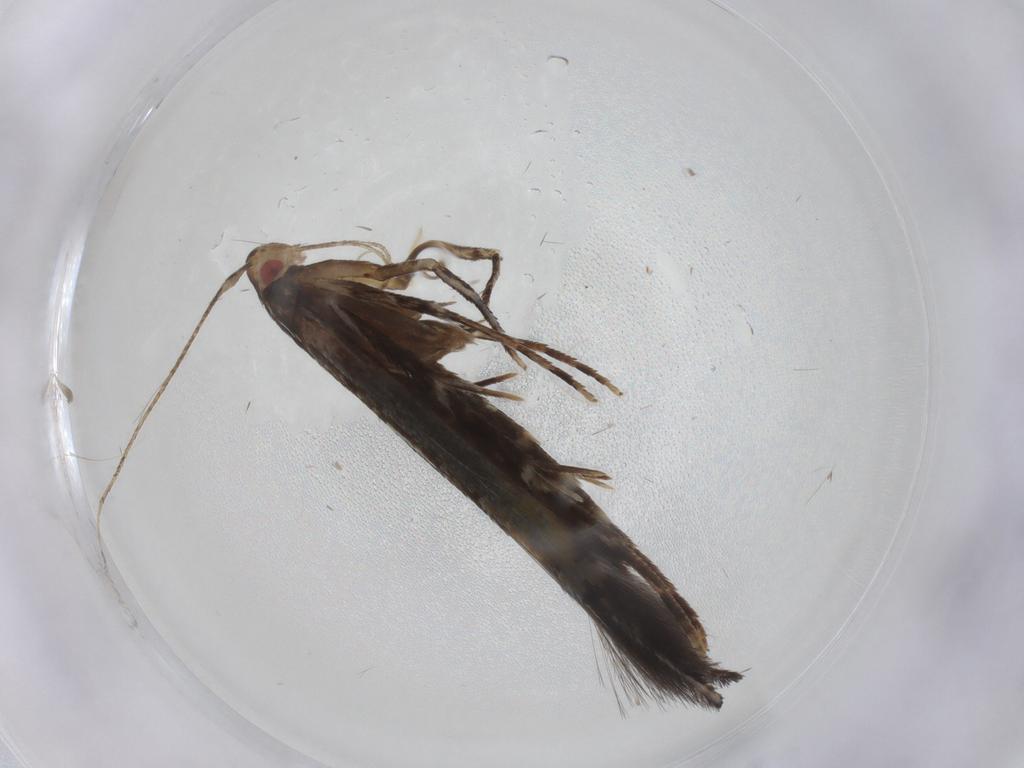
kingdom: Animalia
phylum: Arthropoda
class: Insecta
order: Lepidoptera
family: Cosmopterigidae
